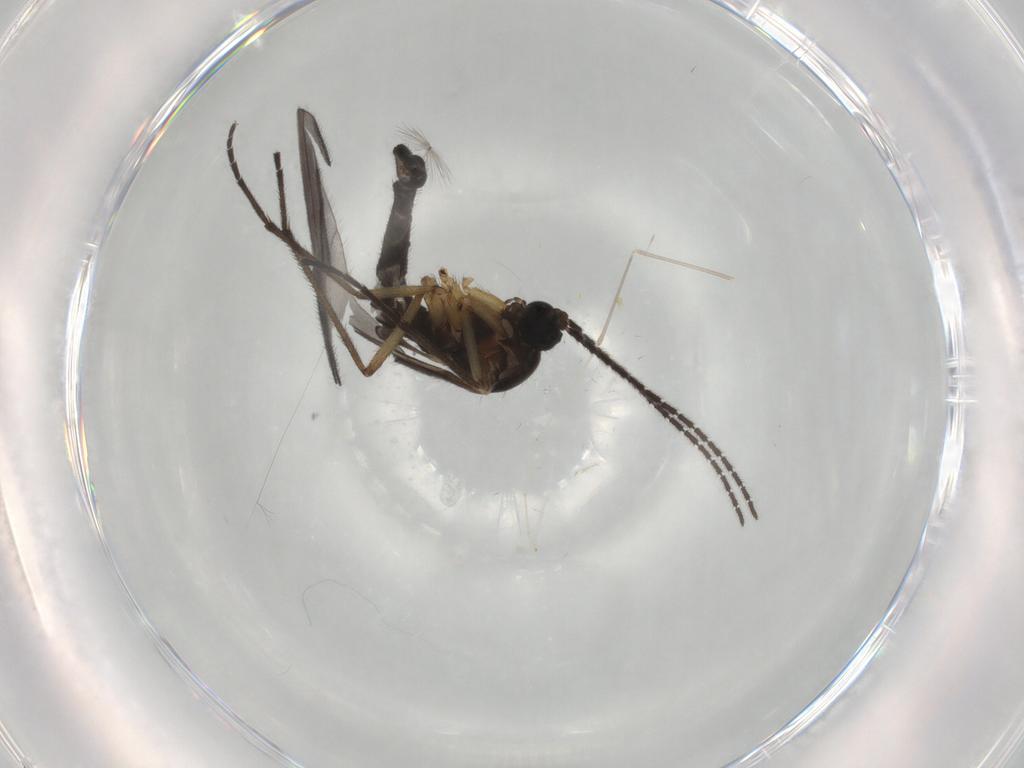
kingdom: Animalia
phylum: Arthropoda
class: Insecta
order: Diptera
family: Sciaridae
